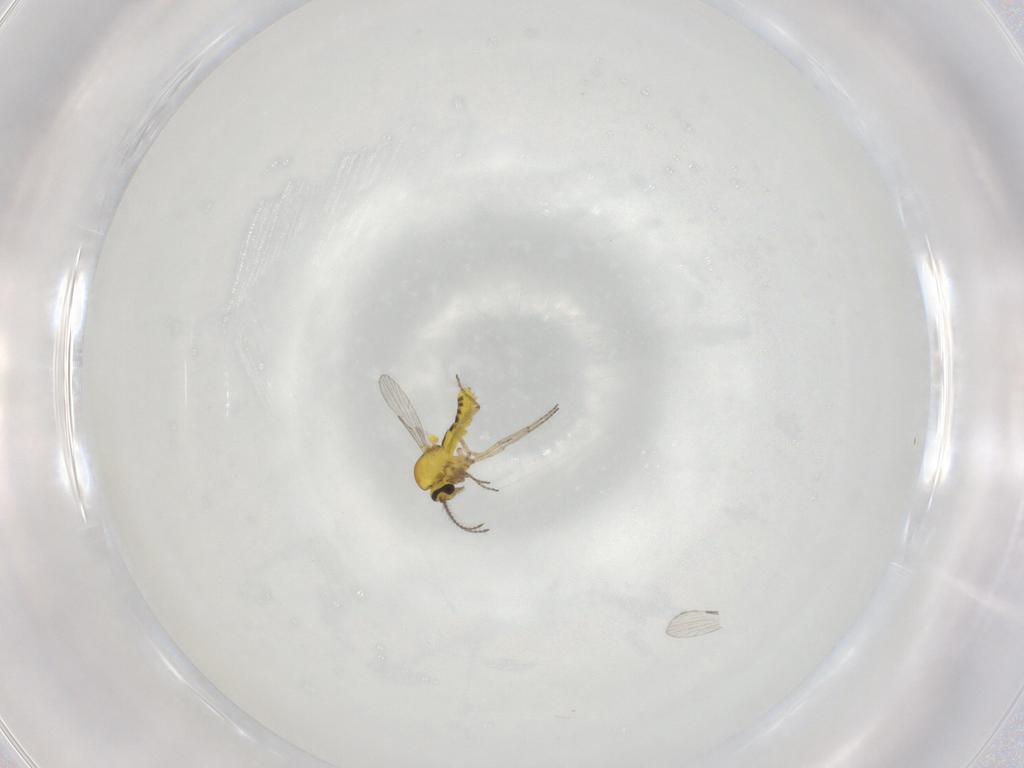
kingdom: Animalia
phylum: Arthropoda
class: Insecta
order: Diptera
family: Ceratopogonidae
